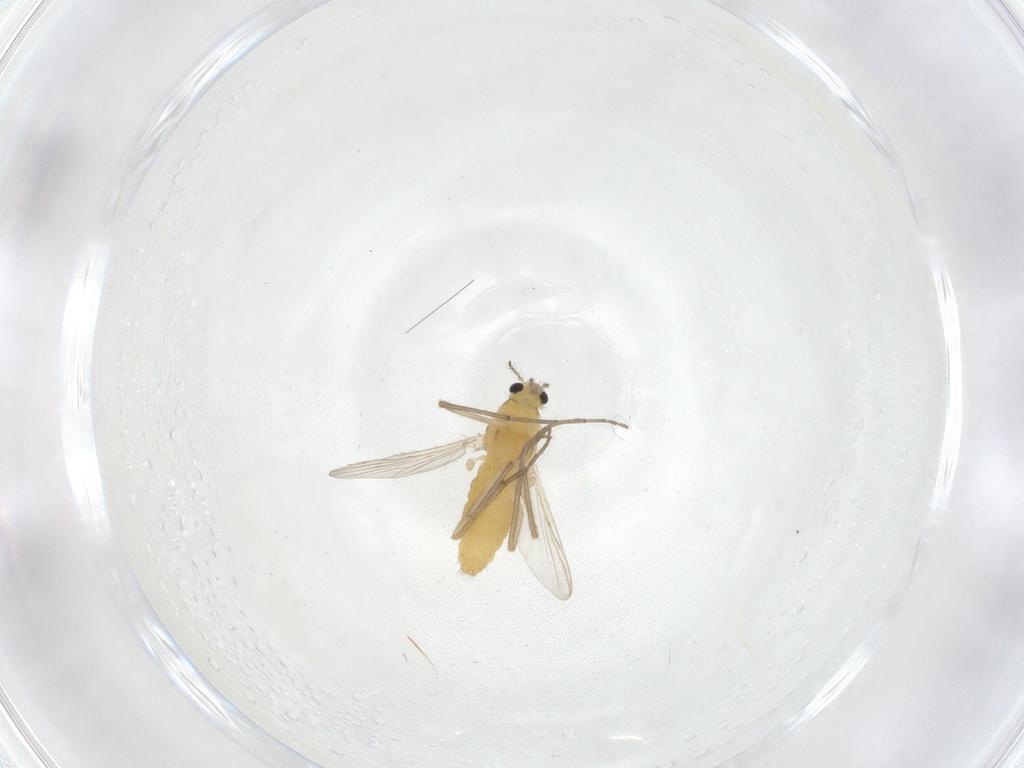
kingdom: Animalia
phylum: Arthropoda
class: Insecta
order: Diptera
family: Chironomidae
